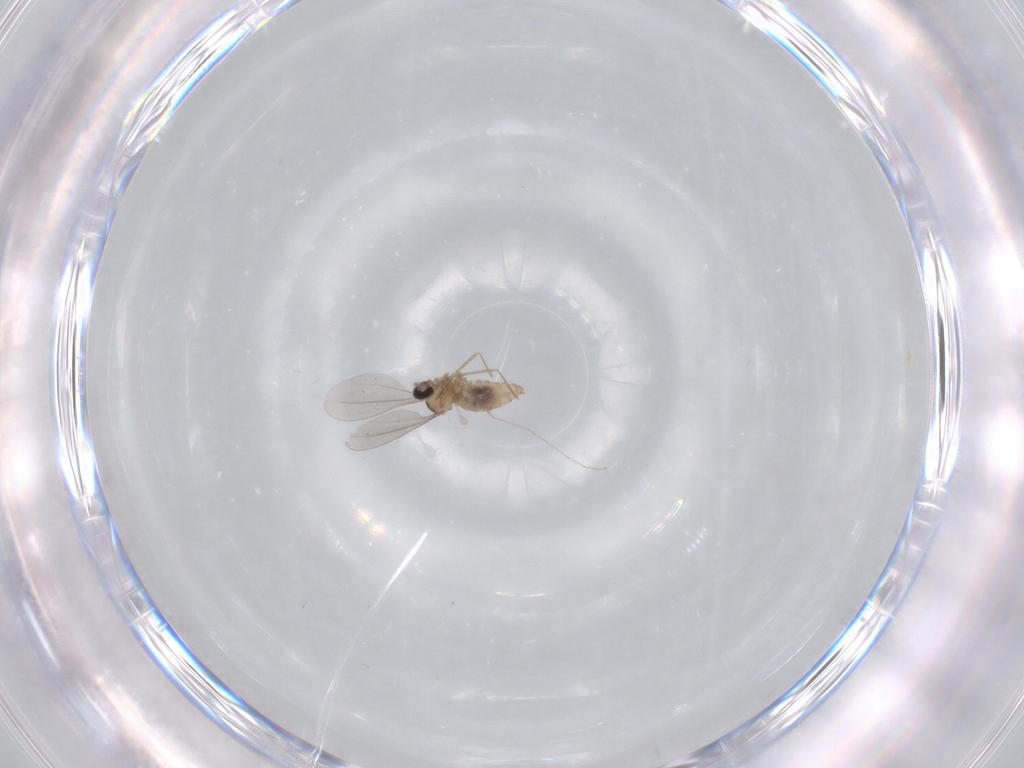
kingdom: Animalia
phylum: Arthropoda
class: Insecta
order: Diptera
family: Cecidomyiidae
